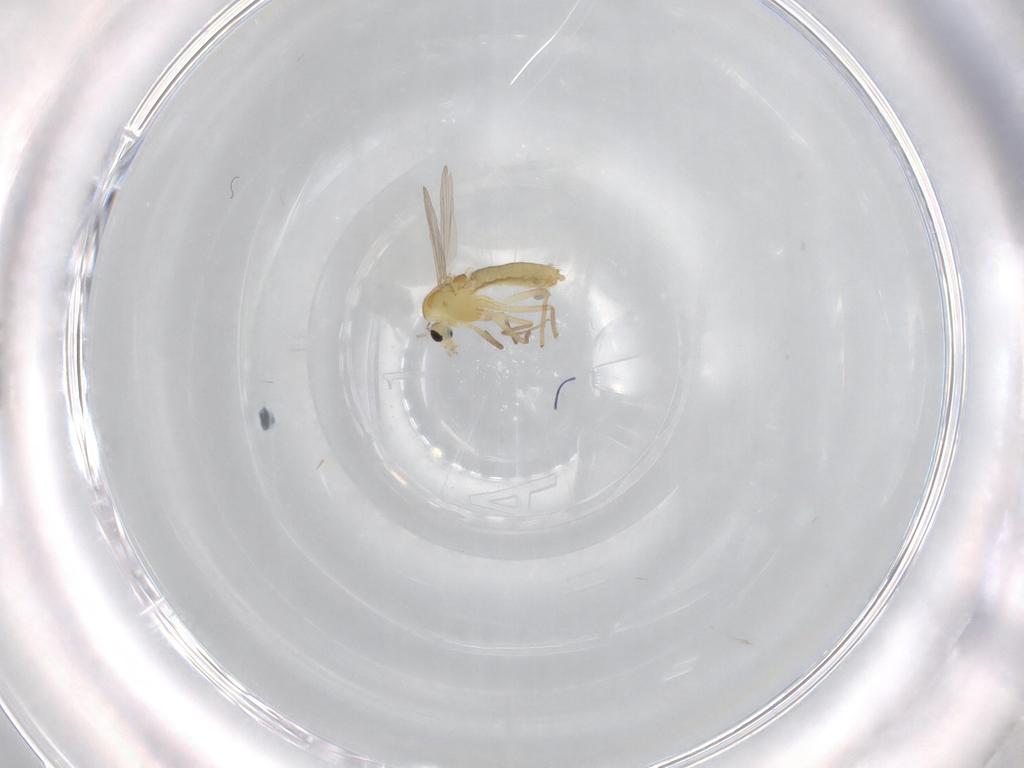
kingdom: Animalia
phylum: Arthropoda
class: Insecta
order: Diptera
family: Chironomidae
